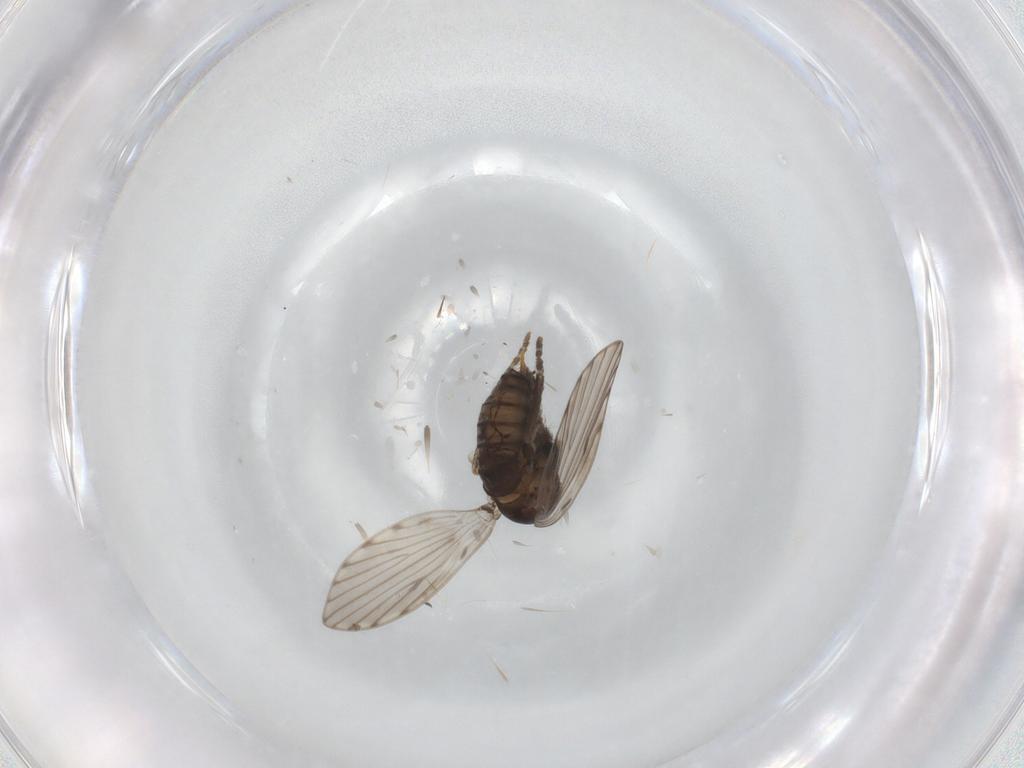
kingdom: Animalia
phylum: Arthropoda
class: Insecta
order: Diptera
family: Psychodidae
